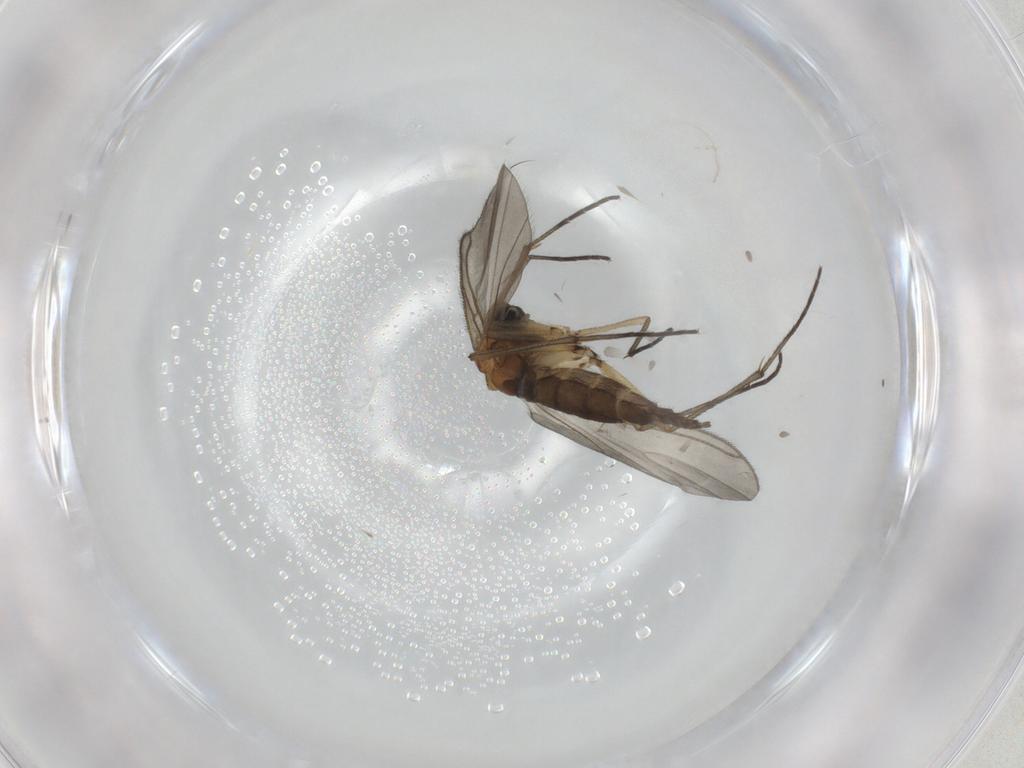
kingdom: Animalia
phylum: Arthropoda
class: Insecta
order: Diptera
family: Sciaridae
